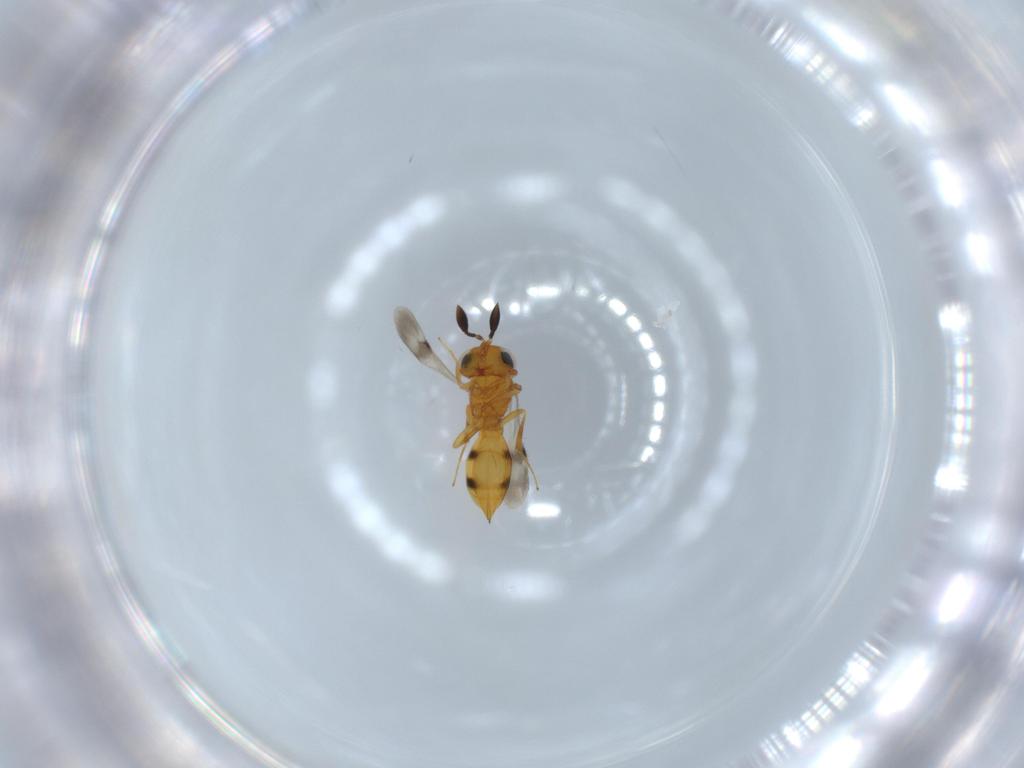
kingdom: Animalia
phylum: Arthropoda
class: Insecta
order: Hymenoptera
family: Scelionidae
